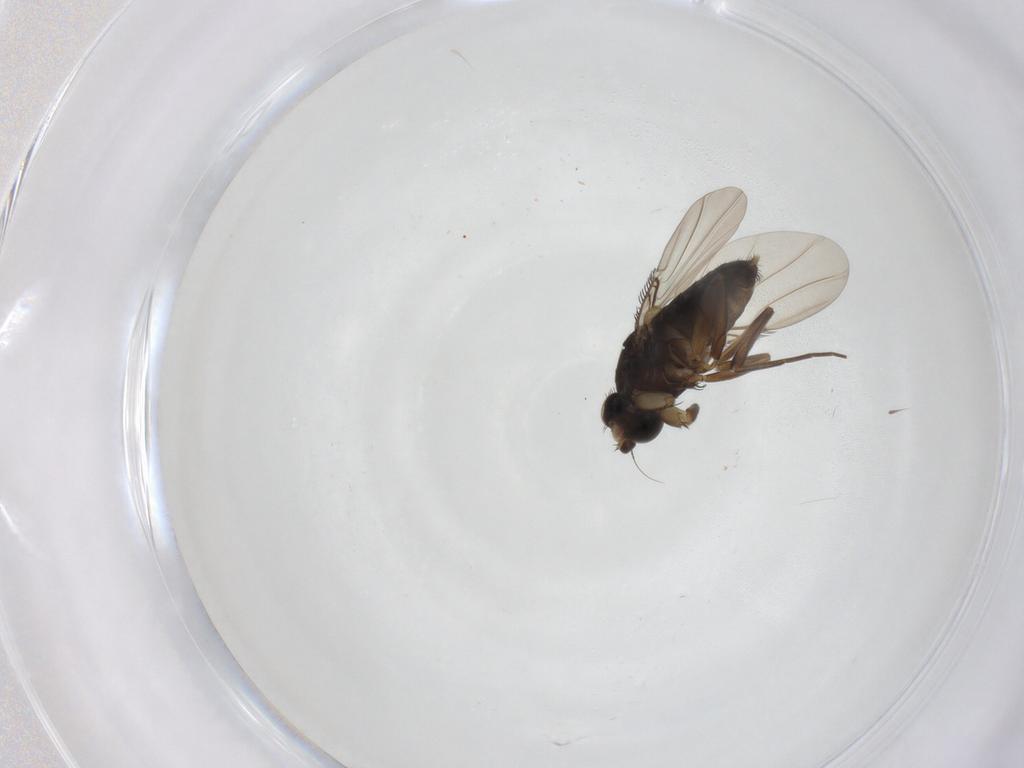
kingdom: Animalia
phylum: Arthropoda
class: Insecta
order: Diptera
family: Phoridae
